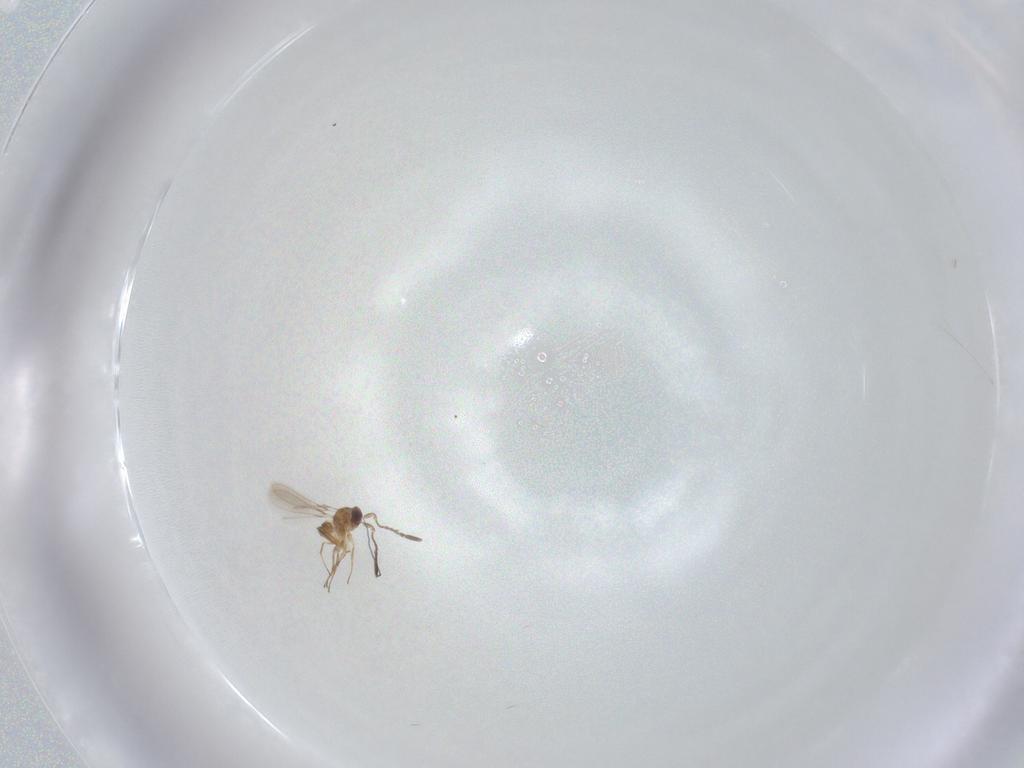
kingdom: Animalia
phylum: Arthropoda
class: Insecta
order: Hymenoptera
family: Mymaridae
